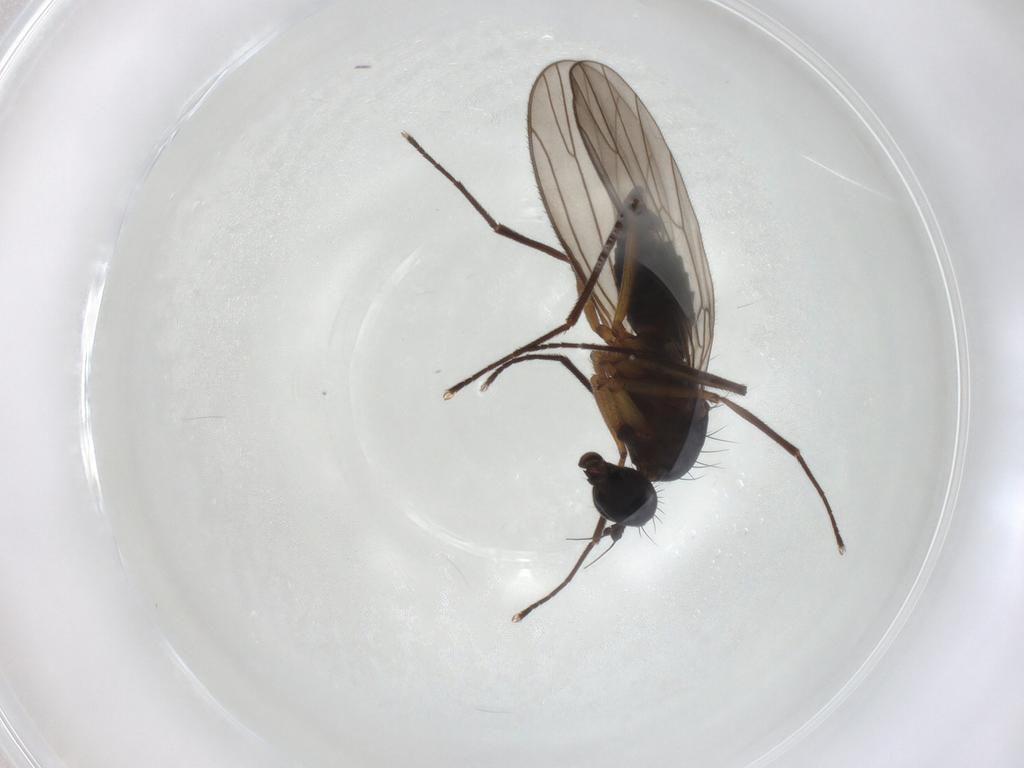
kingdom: Animalia
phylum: Arthropoda
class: Insecta
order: Diptera
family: Empididae
